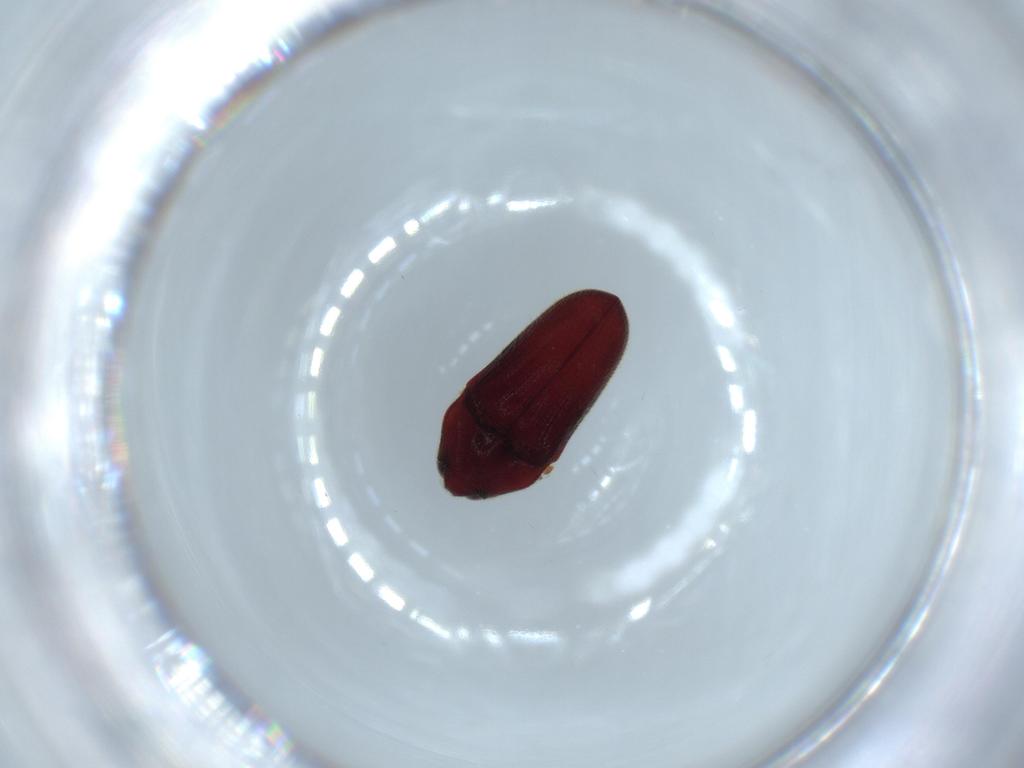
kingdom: Animalia
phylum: Arthropoda
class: Insecta
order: Coleoptera
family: Throscidae
